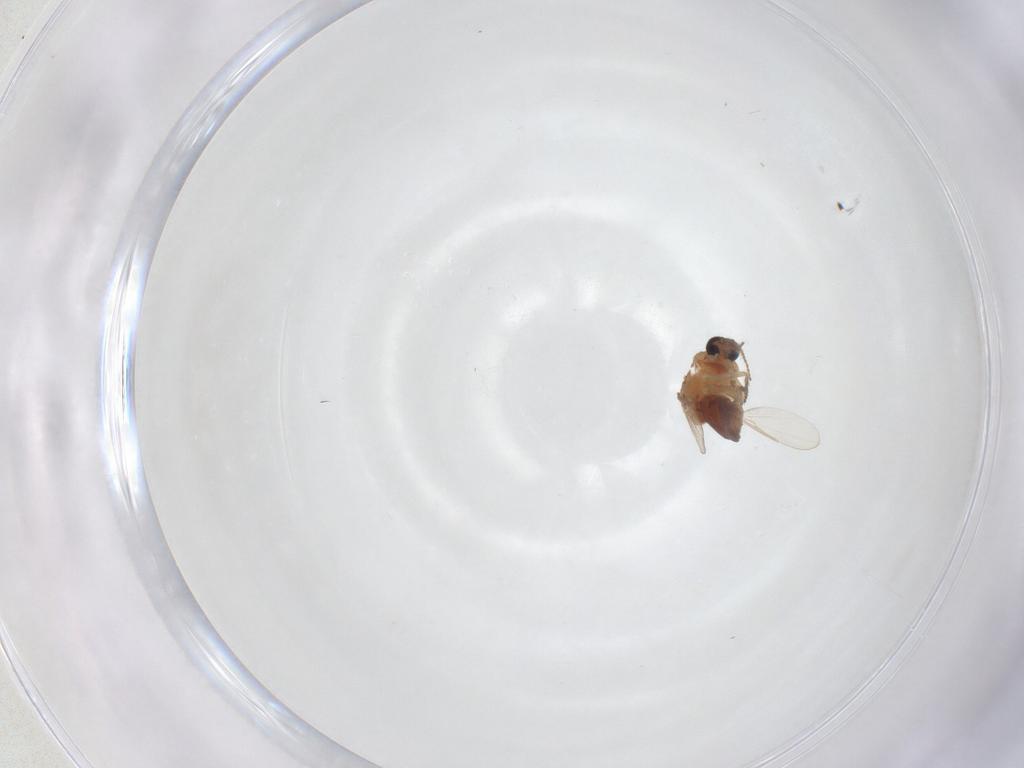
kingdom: Animalia
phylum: Arthropoda
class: Insecta
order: Diptera
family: Ceratopogonidae
